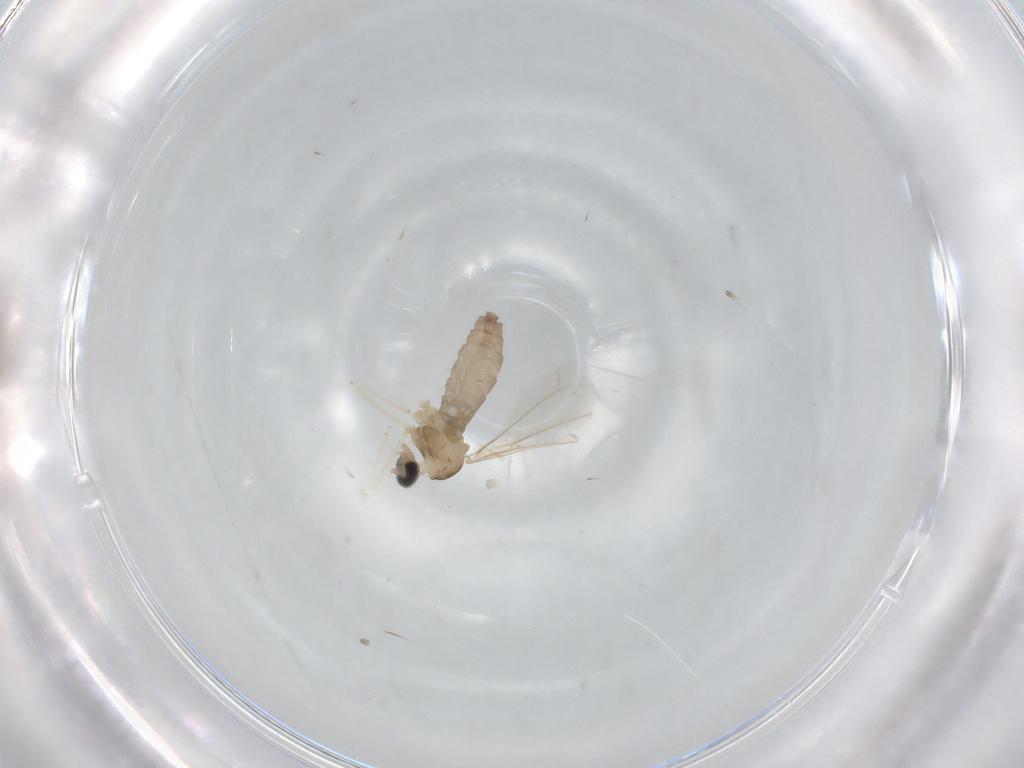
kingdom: Animalia
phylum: Arthropoda
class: Insecta
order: Diptera
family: Cecidomyiidae
